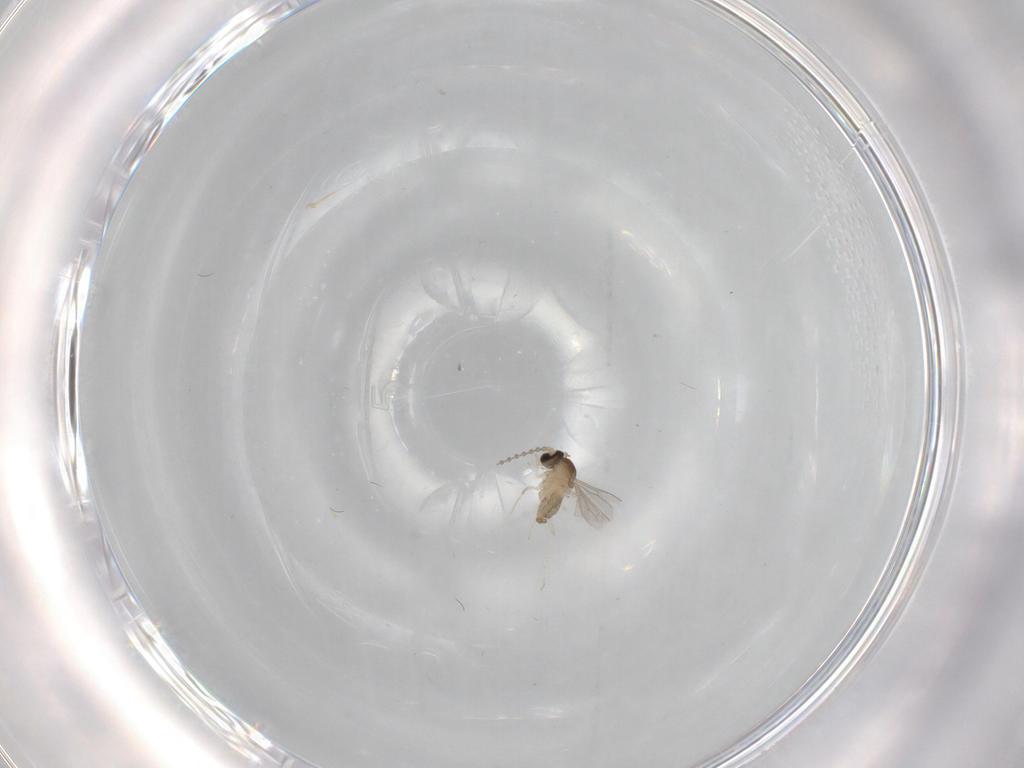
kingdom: Animalia
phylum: Arthropoda
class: Insecta
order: Diptera
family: Cecidomyiidae
